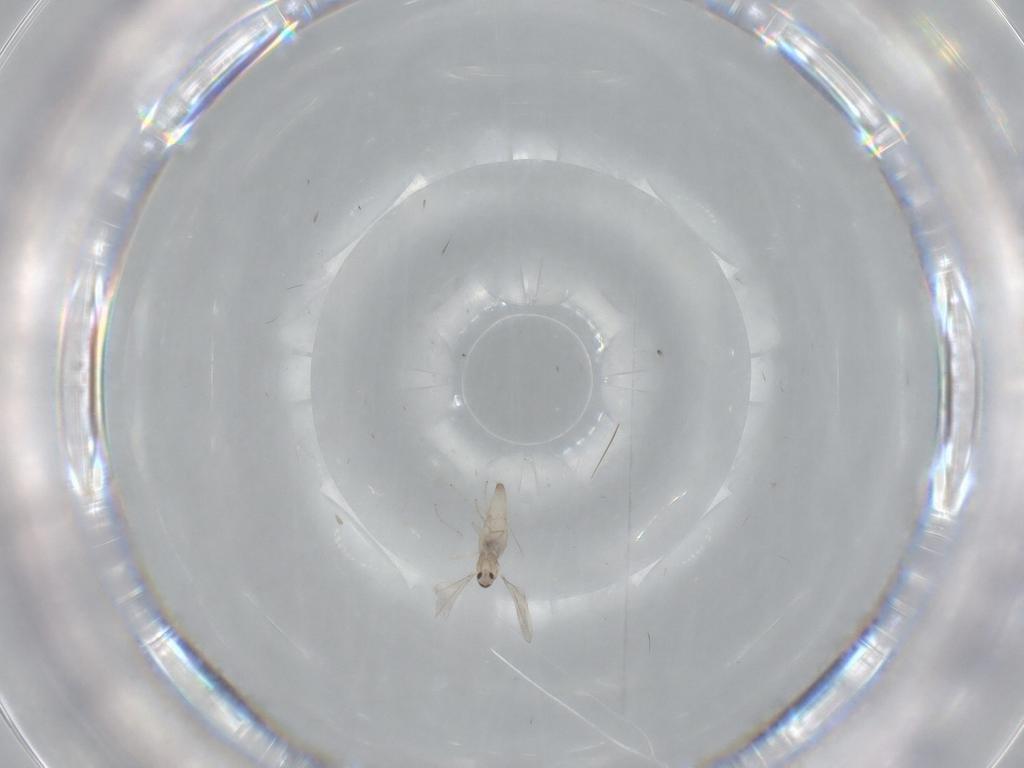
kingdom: Animalia
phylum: Arthropoda
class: Insecta
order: Diptera
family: Cecidomyiidae
